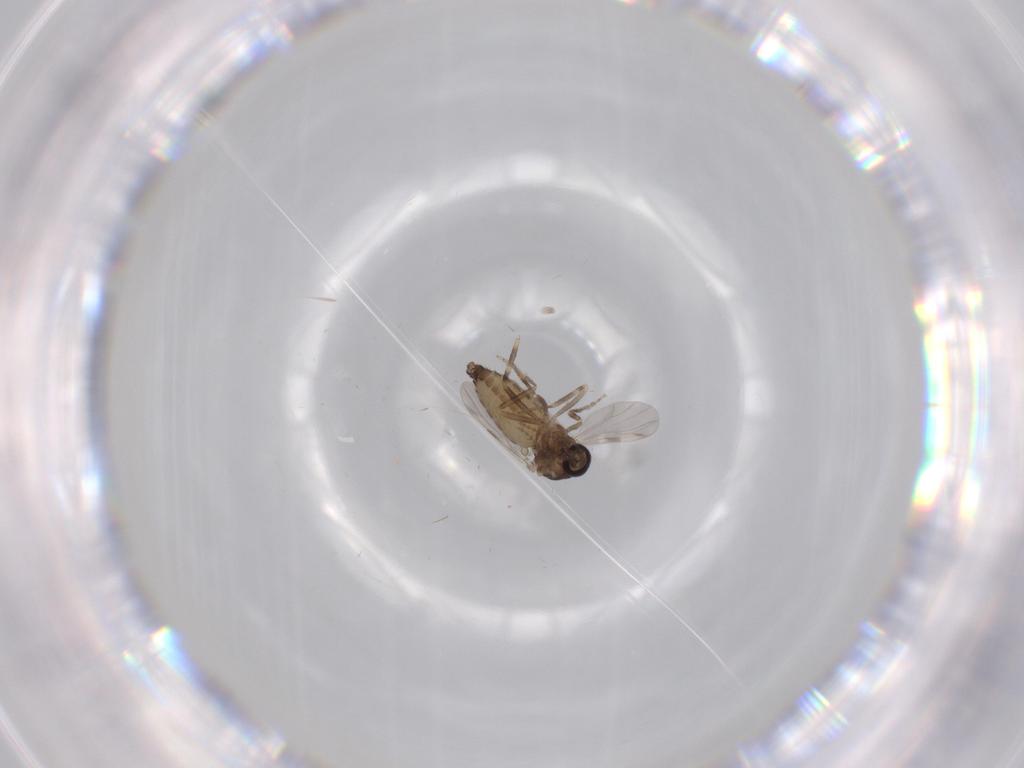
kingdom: Animalia
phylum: Arthropoda
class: Insecta
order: Diptera
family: Ceratopogonidae
